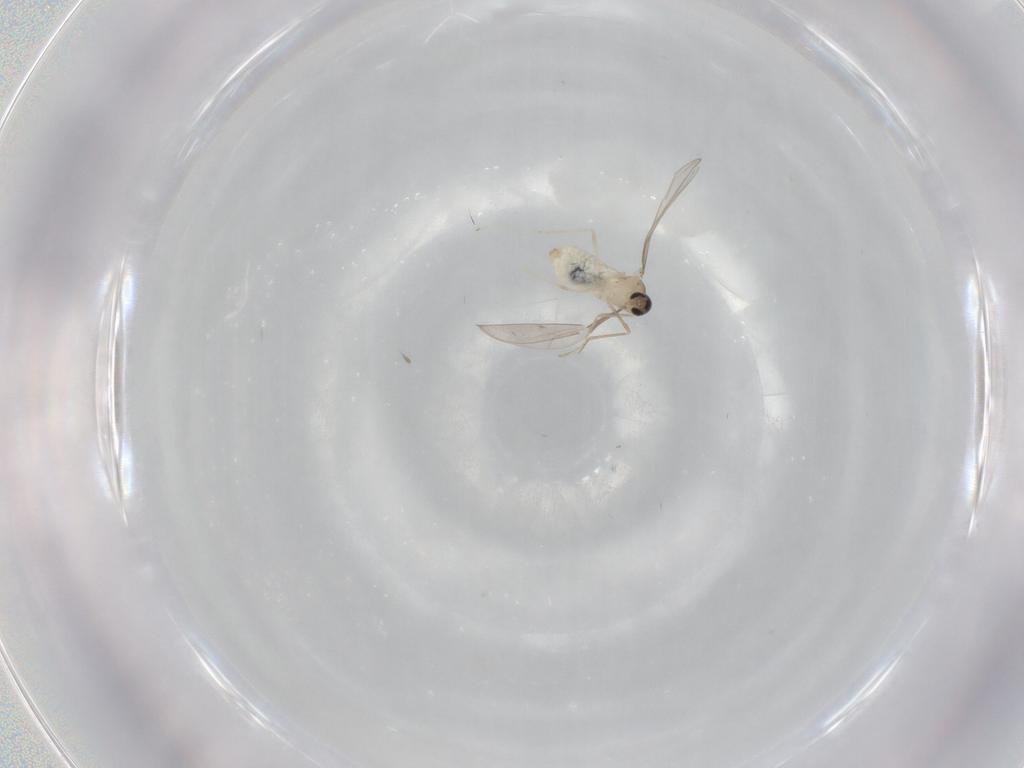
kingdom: Animalia
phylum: Arthropoda
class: Insecta
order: Diptera
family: Cecidomyiidae
